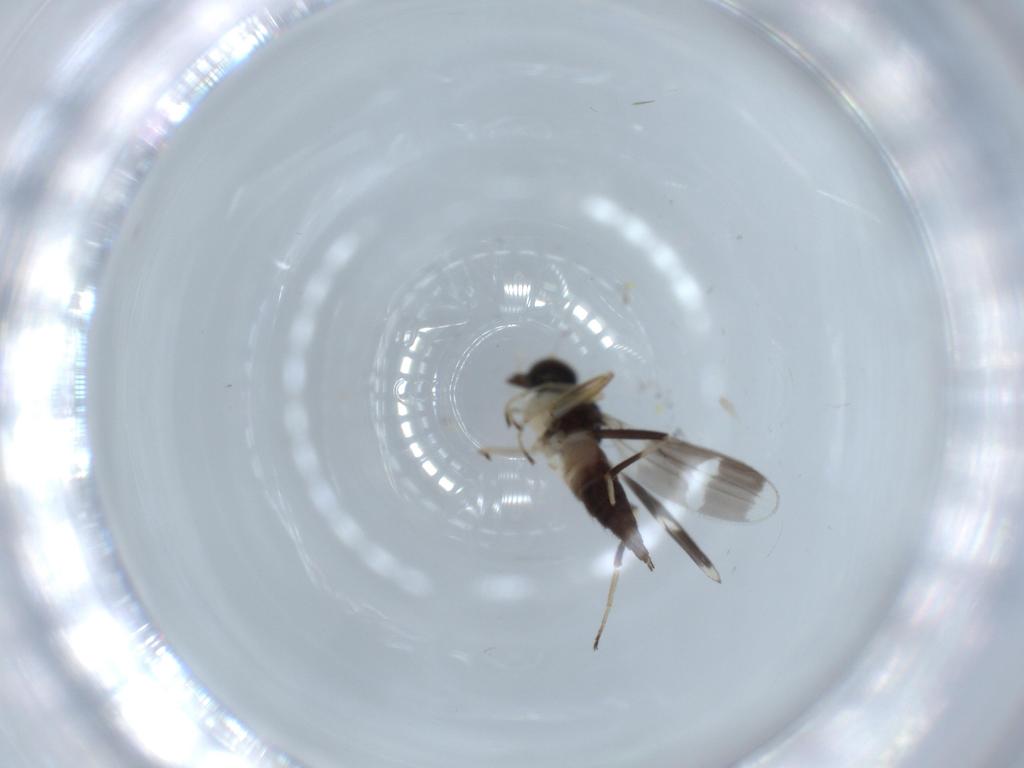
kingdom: Animalia
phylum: Arthropoda
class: Insecta
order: Diptera
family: Hybotidae
